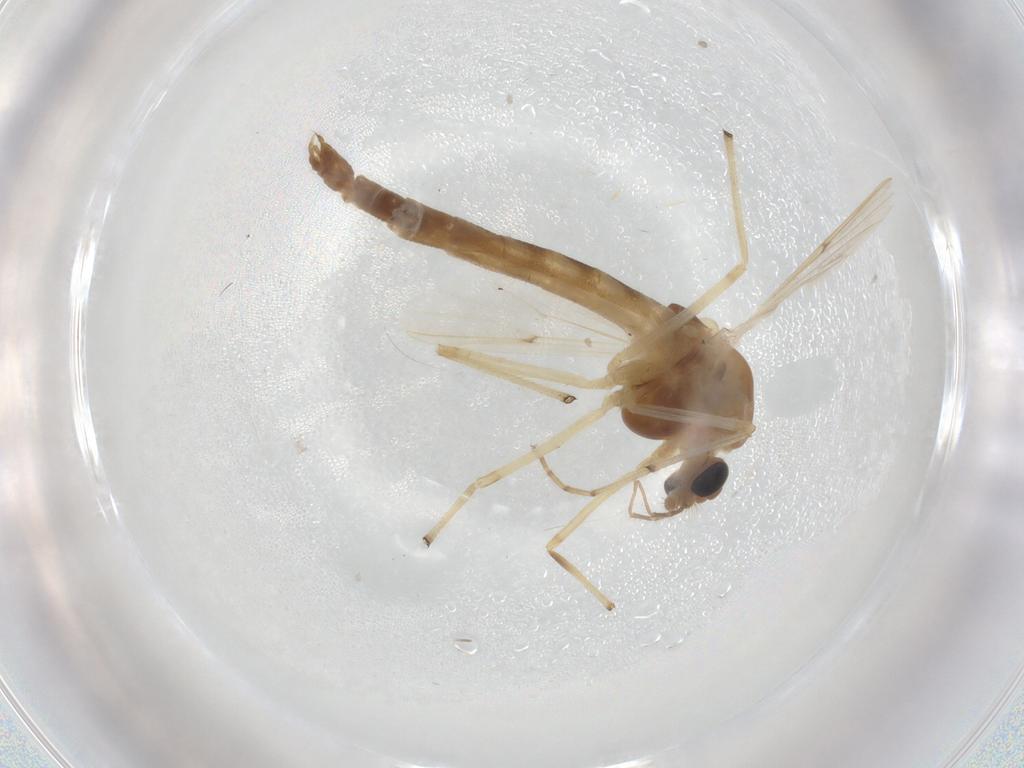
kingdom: Animalia
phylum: Arthropoda
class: Insecta
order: Diptera
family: Chironomidae
